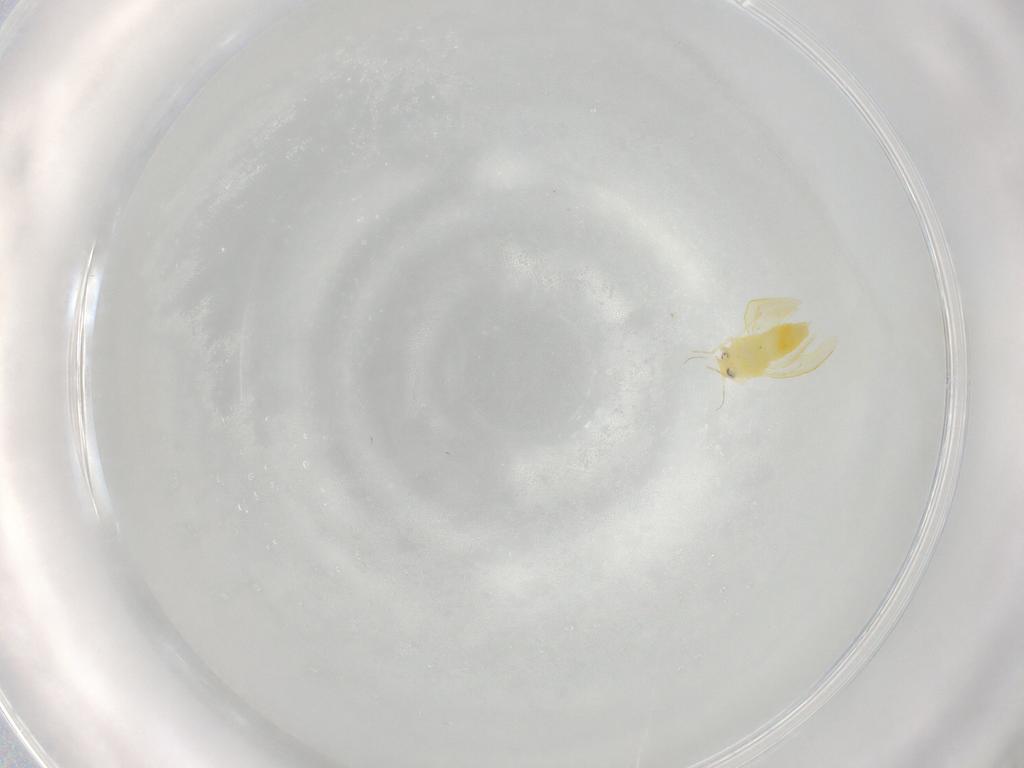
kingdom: Animalia
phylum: Arthropoda
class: Insecta
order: Hemiptera
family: Aleyrodidae
